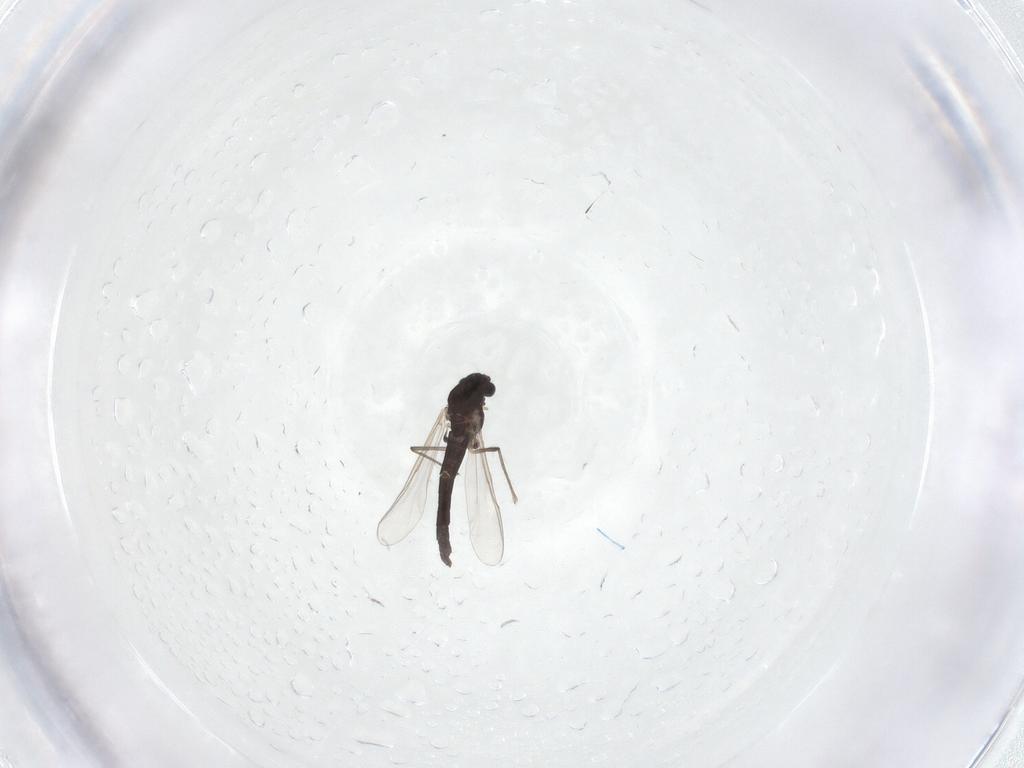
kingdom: Animalia
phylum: Arthropoda
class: Insecta
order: Diptera
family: Chironomidae
